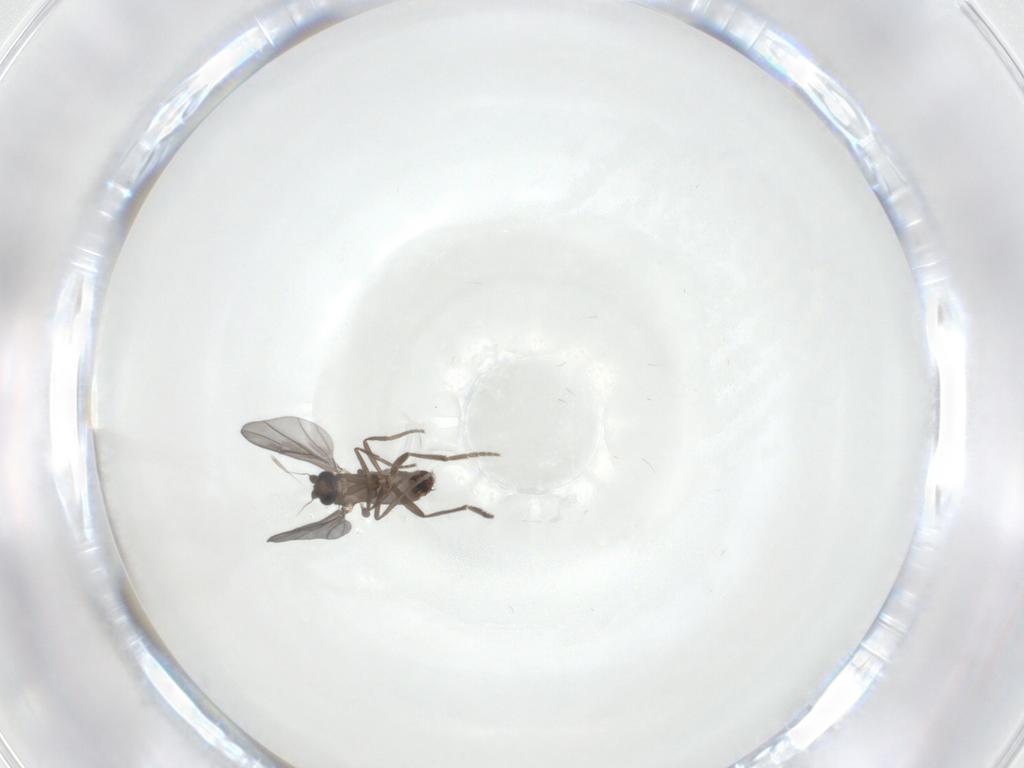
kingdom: Animalia
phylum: Arthropoda
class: Insecta
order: Diptera
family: Phoridae
